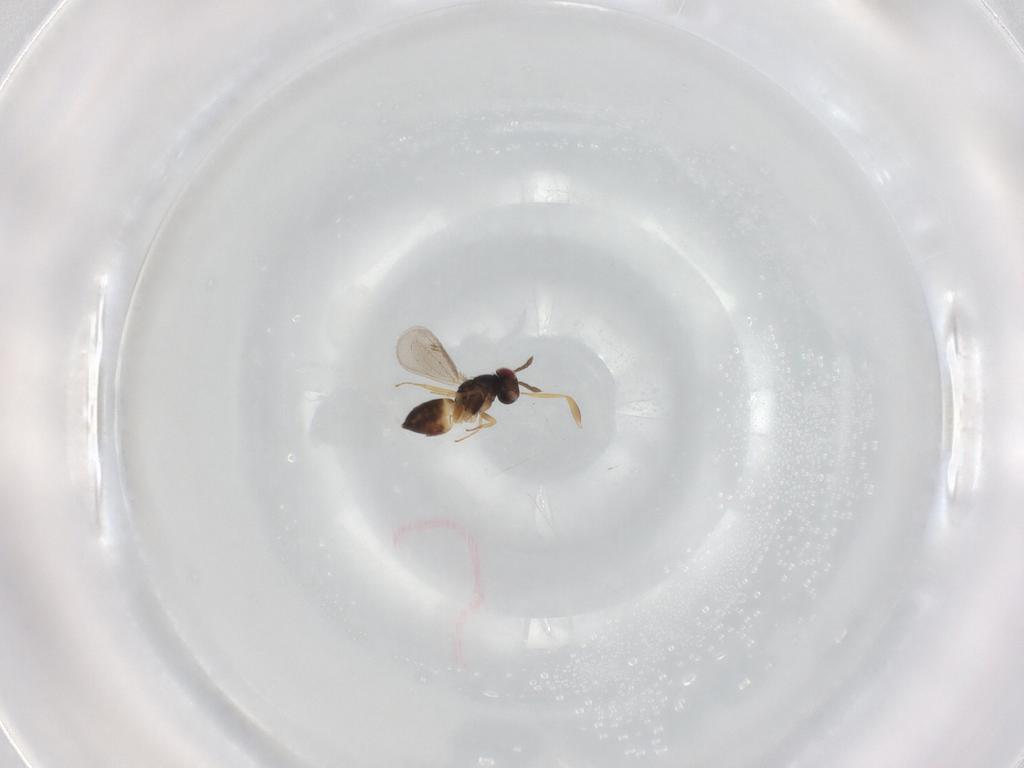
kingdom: Animalia
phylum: Arthropoda
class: Insecta
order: Hymenoptera
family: Eulophidae
